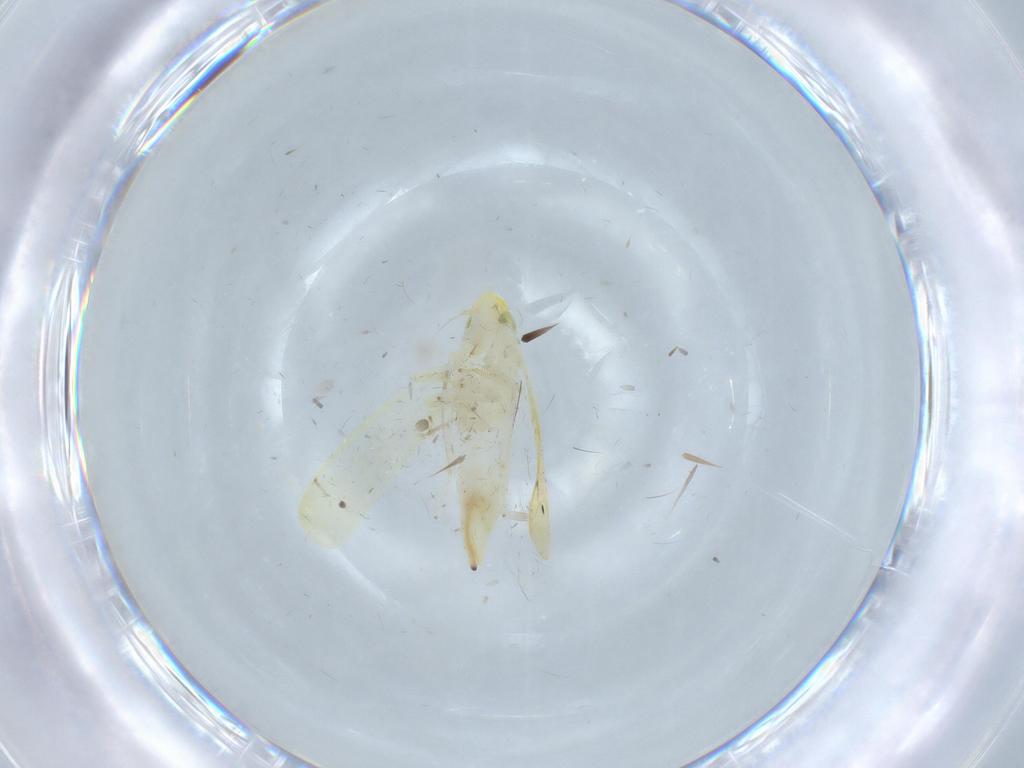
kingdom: Animalia
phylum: Arthropoda
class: Insecta
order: Hemiptera
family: Cicadellidae
